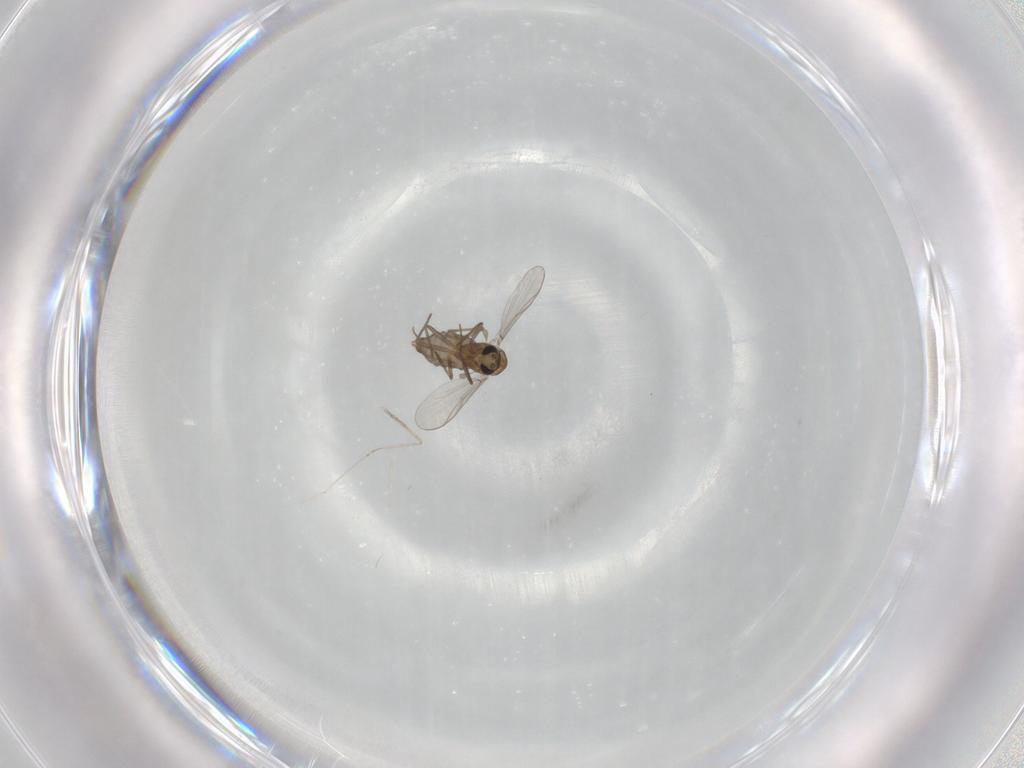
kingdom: Animalia
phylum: Arthropoda
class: Insecta
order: Diptera
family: Chironomidae
